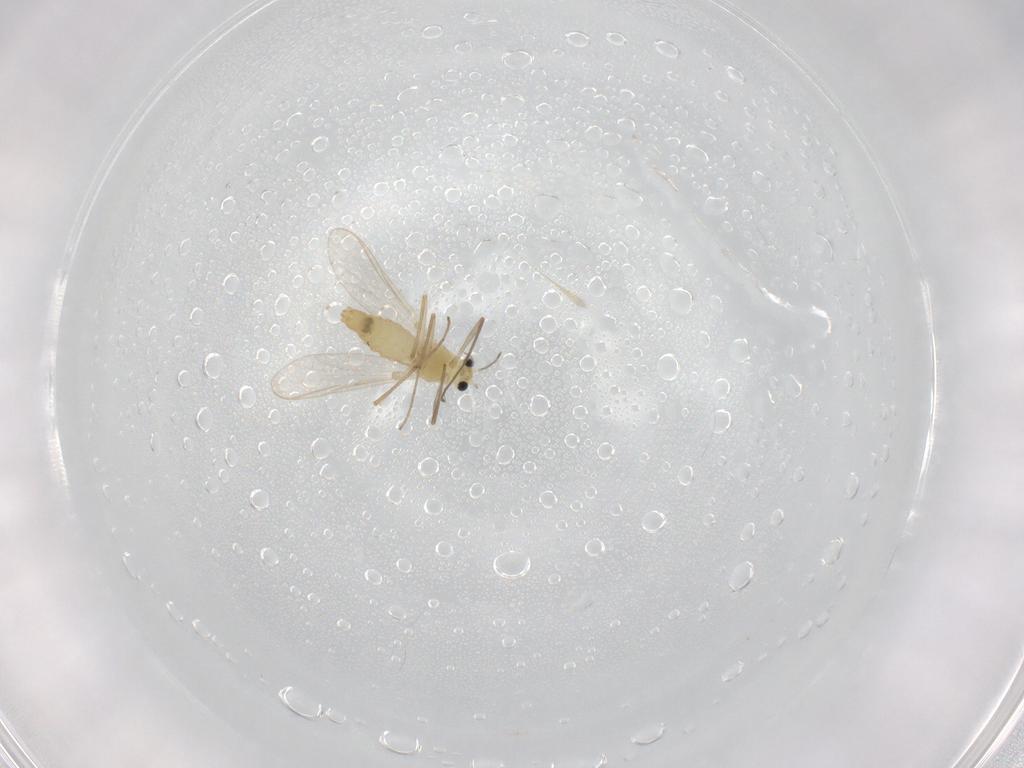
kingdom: Animalia
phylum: Arthropoda
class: Insecta
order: Diptera
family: Chironomidae
